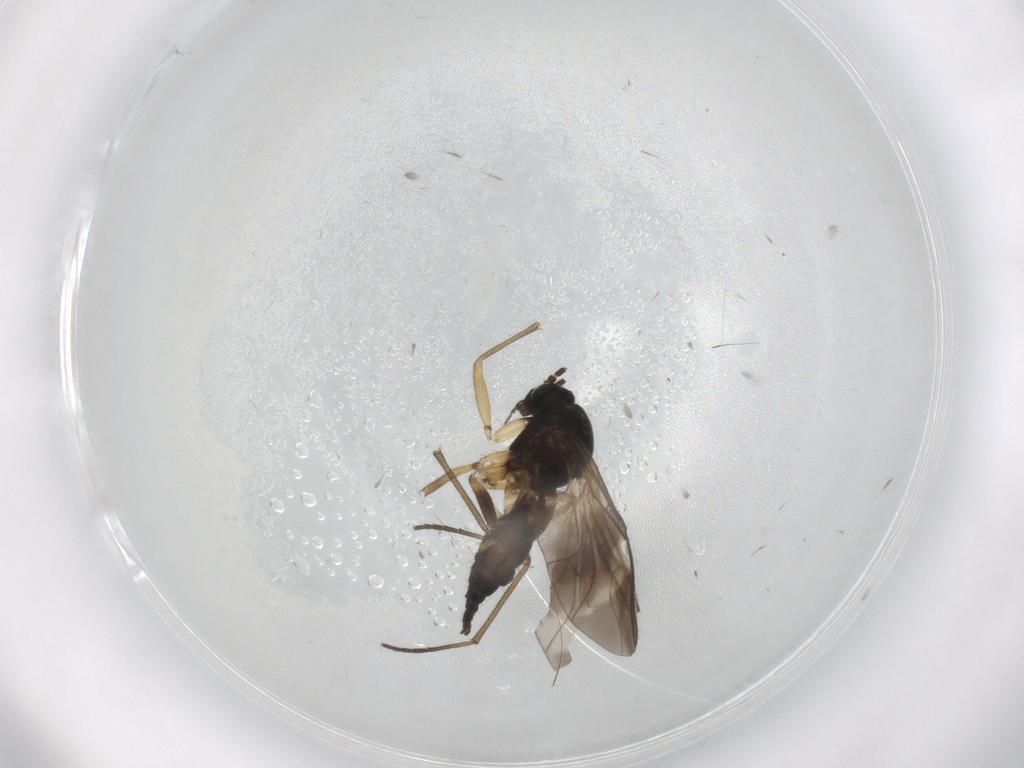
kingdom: Animalia
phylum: Arthropoda
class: Insecta
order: Diptera
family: Sciaridae
